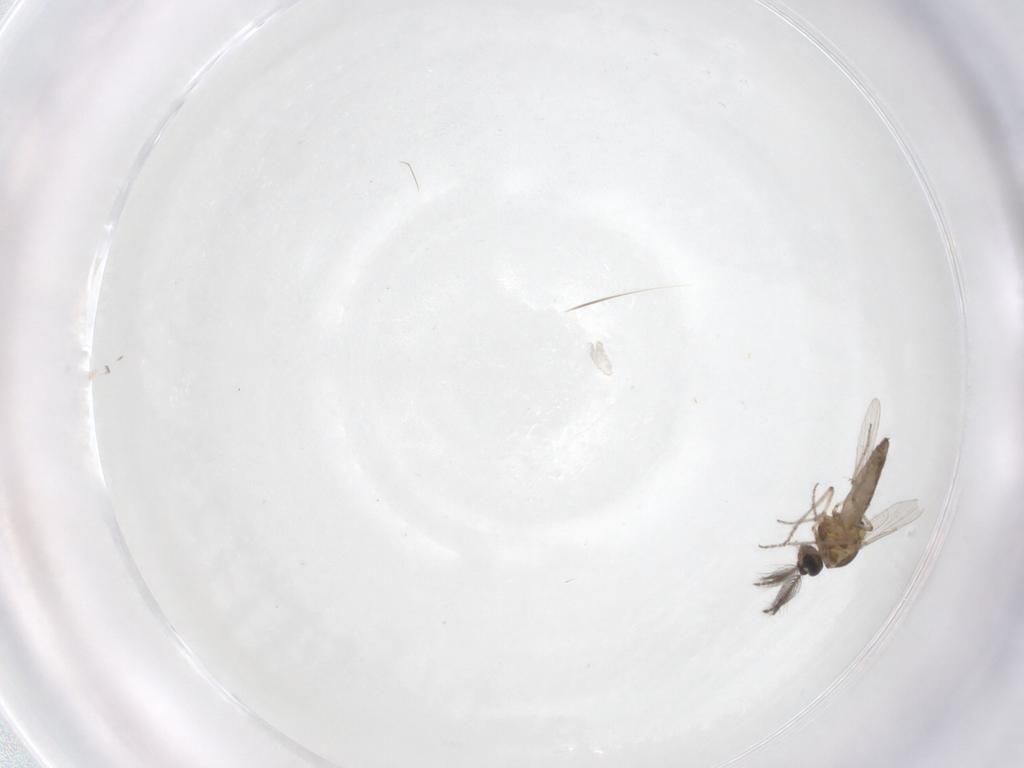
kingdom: Animalia
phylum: Arthropoda
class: Insecta
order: Diptera
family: Ceratopogonidae
